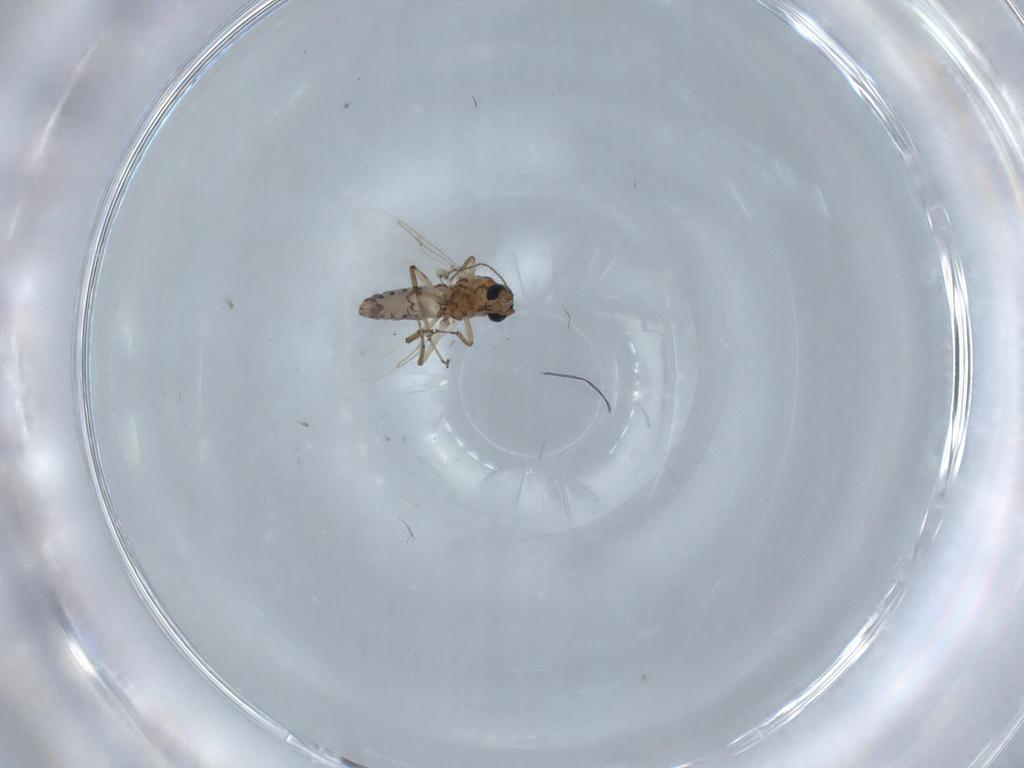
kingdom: Animalia
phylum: Arthropoda
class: Insecta
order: Diptera
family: Ceratopogonidae
